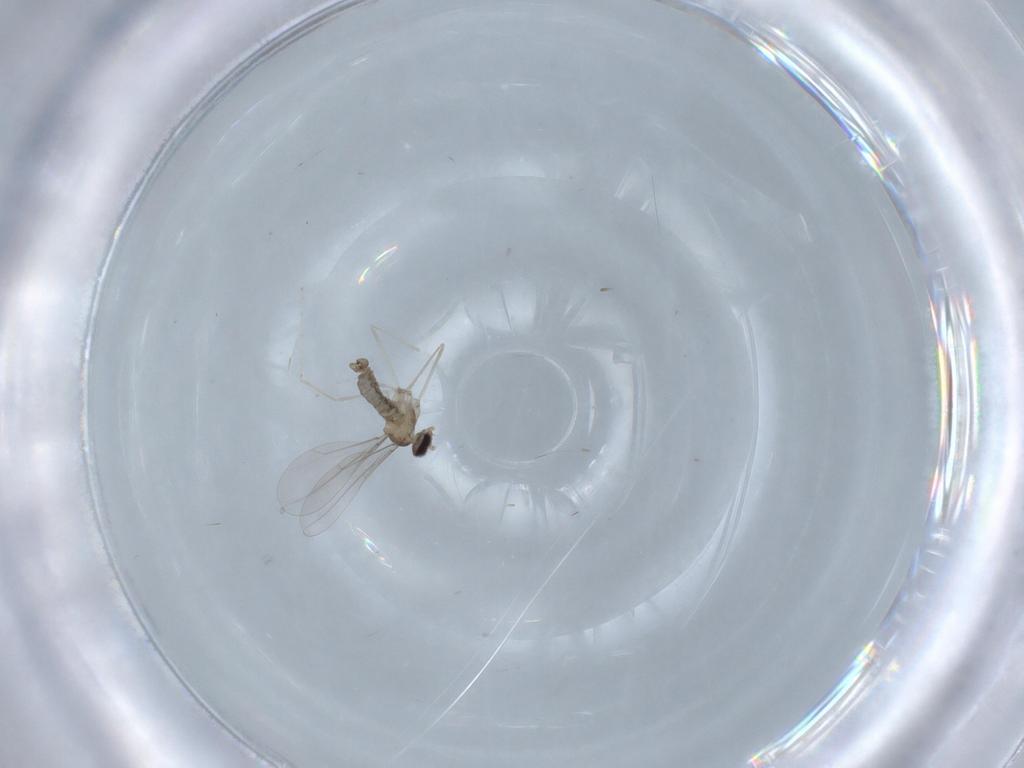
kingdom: Animalia
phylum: Arthropoda
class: Insecta
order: Diptera
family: Cecidomyiidae
